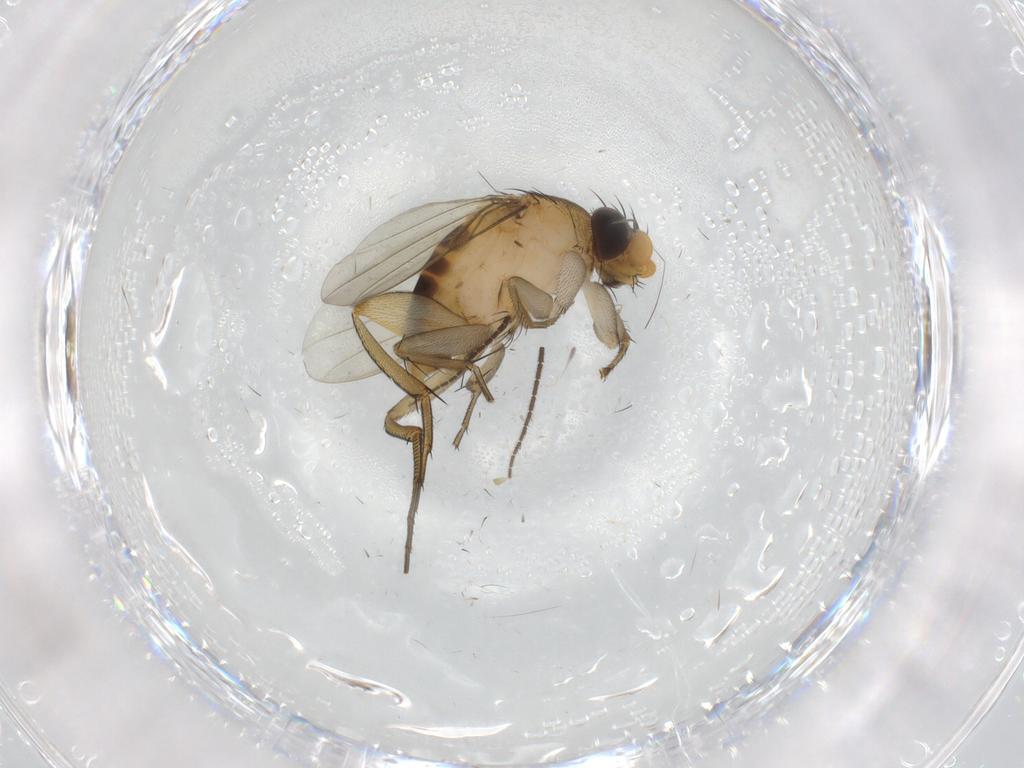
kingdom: Animalia
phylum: Arthropoda
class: Insecta
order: Diptera
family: Phoridae
